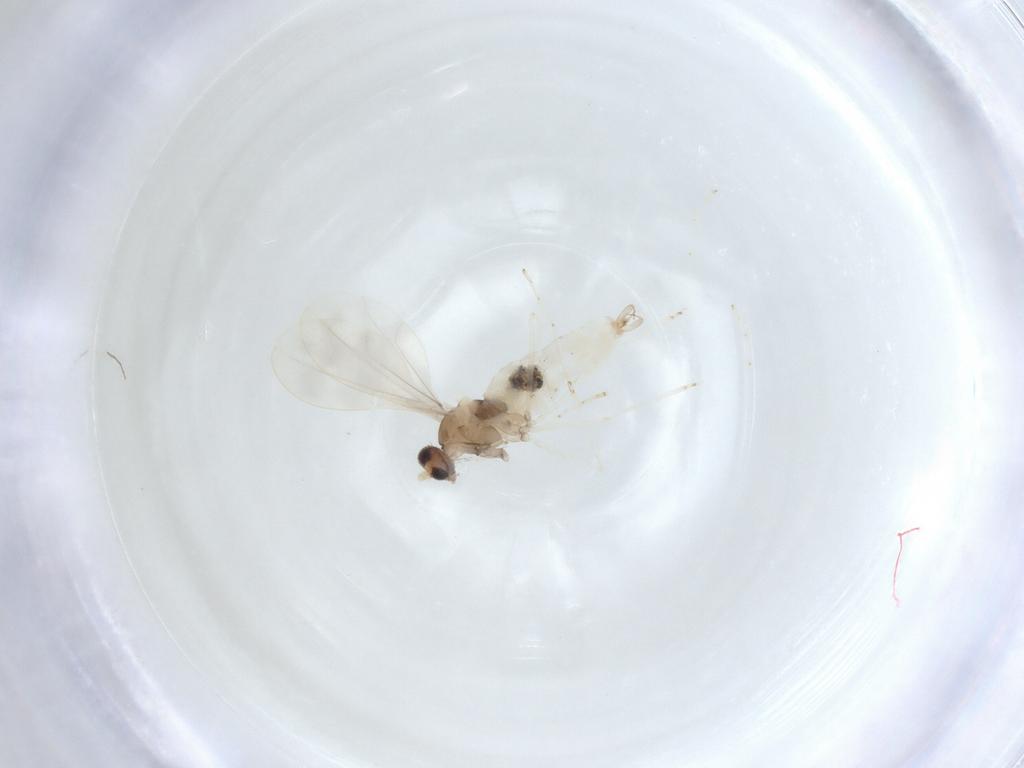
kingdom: Animalia
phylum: Arthropoda
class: Insecta
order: Diptera
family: Cecidomyiidae
